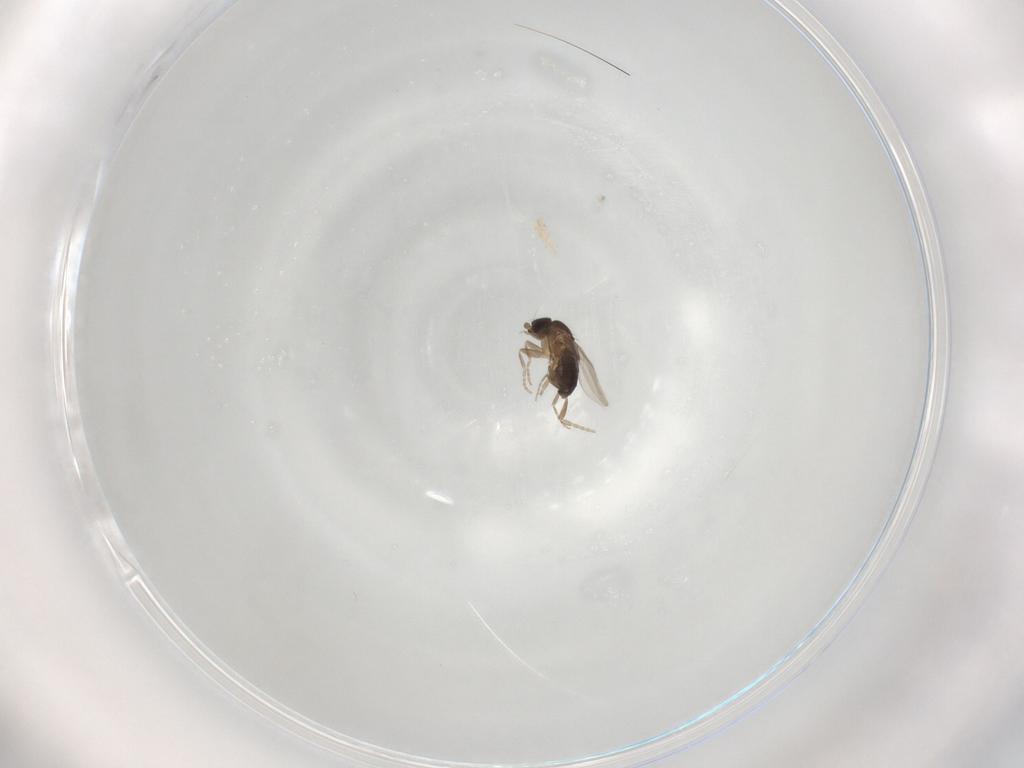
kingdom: Animalia
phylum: Arthropoda
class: Insecta
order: Diptera
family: Phoridae
